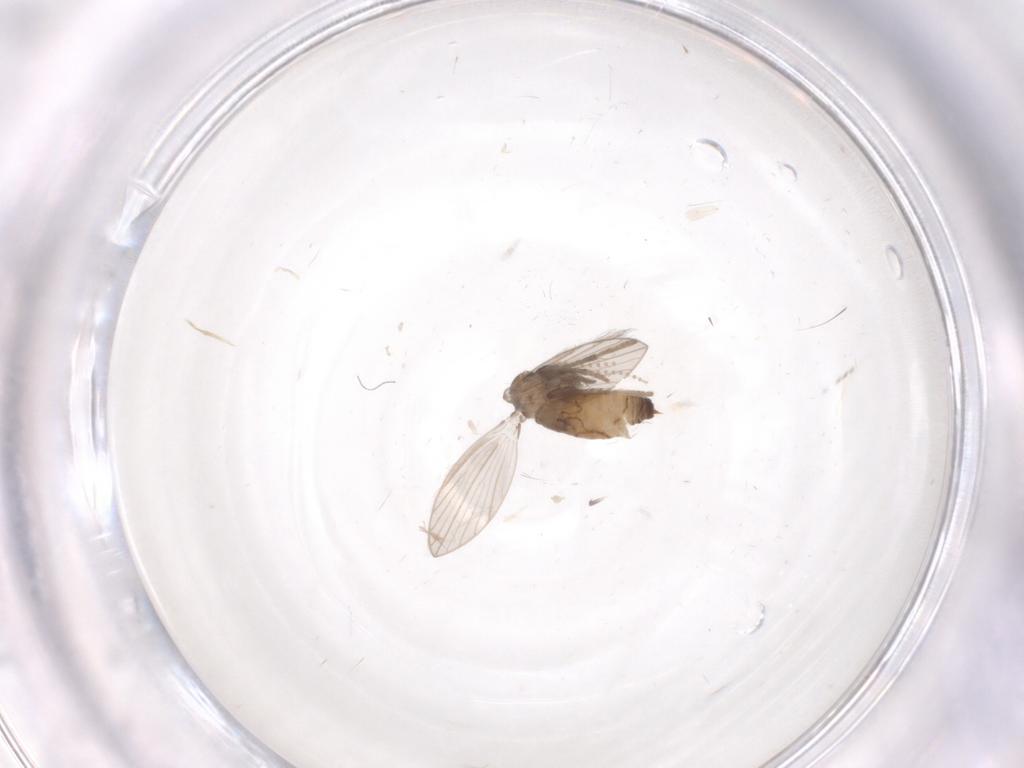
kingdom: Animalia
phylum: Arthropoda
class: Insecta
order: Diptera
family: Psychodidae
